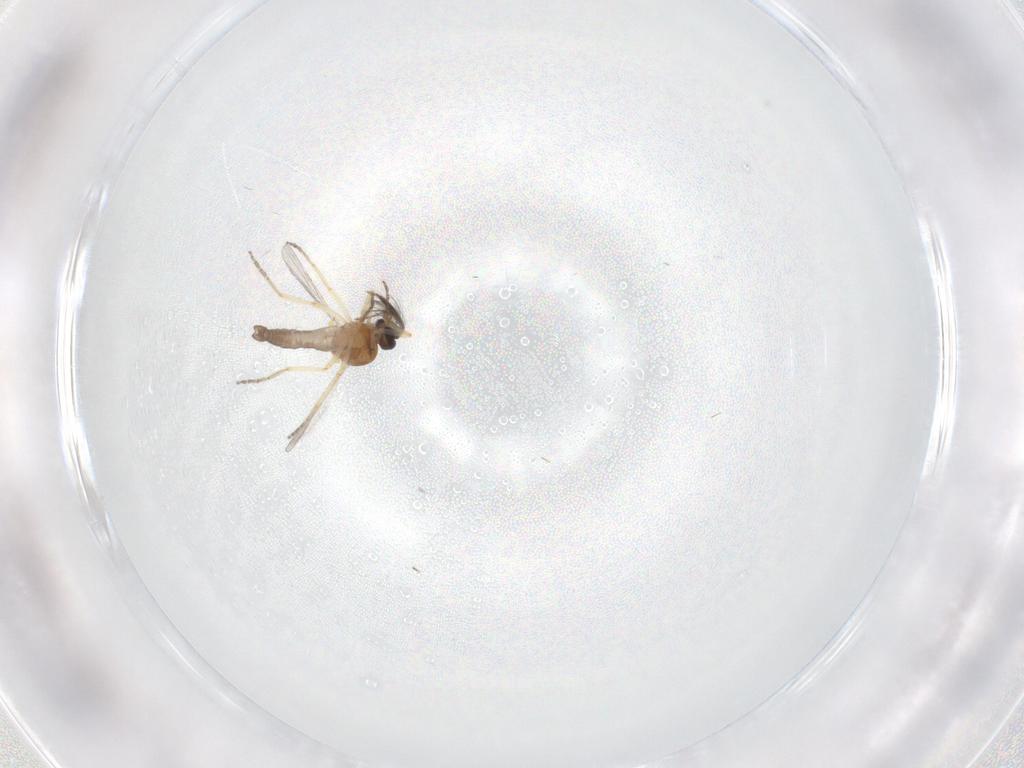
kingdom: Animalia
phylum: Arthropoda
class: Insecta
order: Diptera
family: Ceratopogonidae
